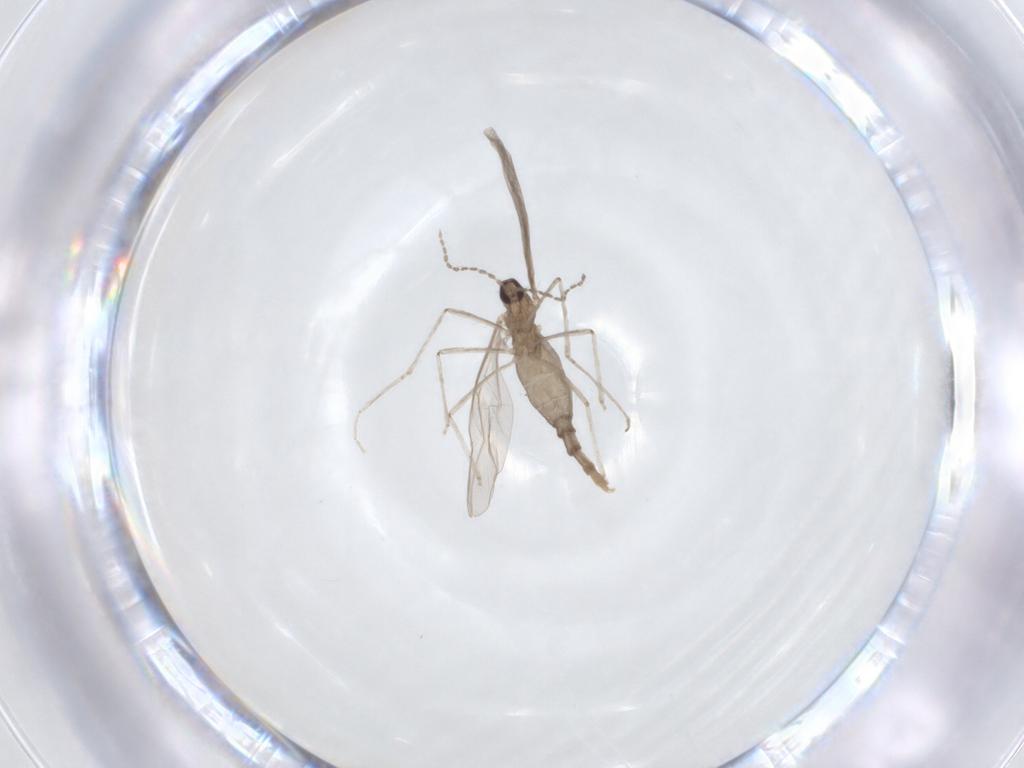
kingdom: Animalia
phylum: Arthropoda
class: Insecta
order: Diptera
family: Cecidomyiidae
